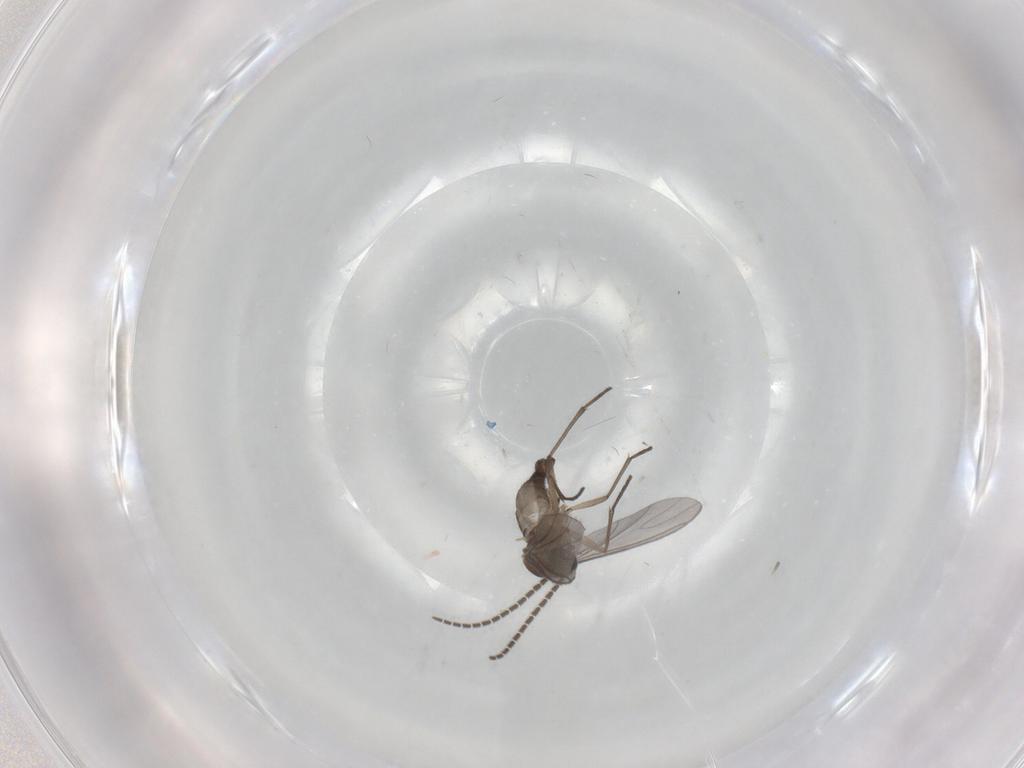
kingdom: Animalia
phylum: Arthropoda
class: Insecta
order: Diptera
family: Sciaridae
